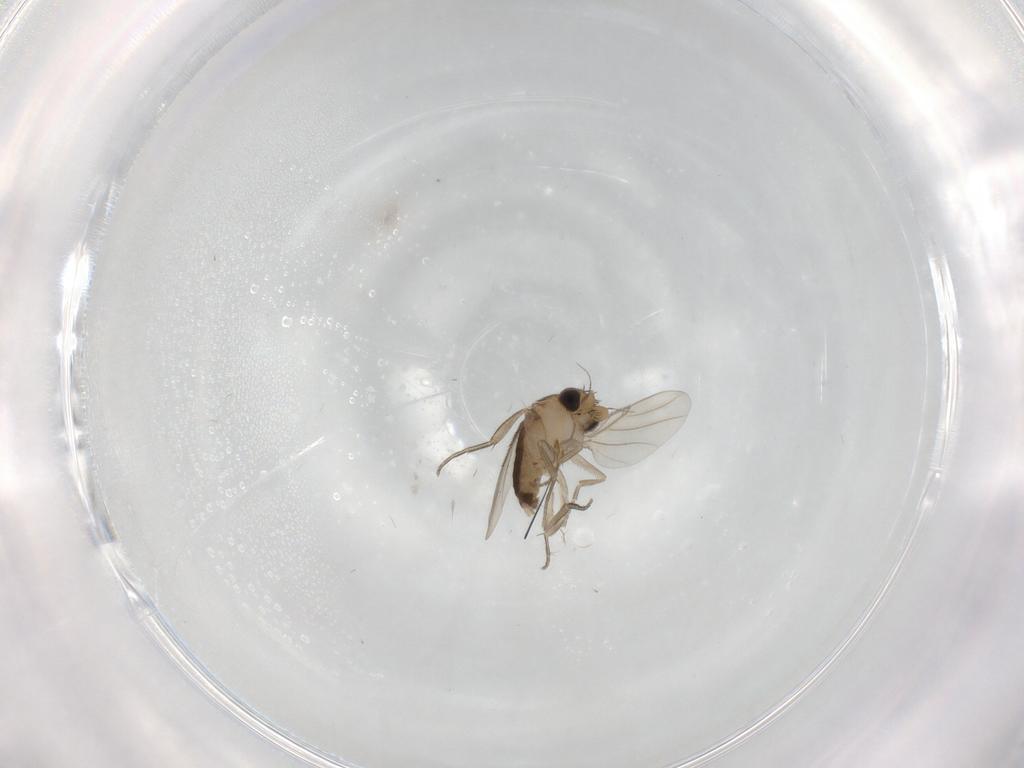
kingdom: Animalia
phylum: Arthropoda
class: Insecta
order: Diptera
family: Phoridae
